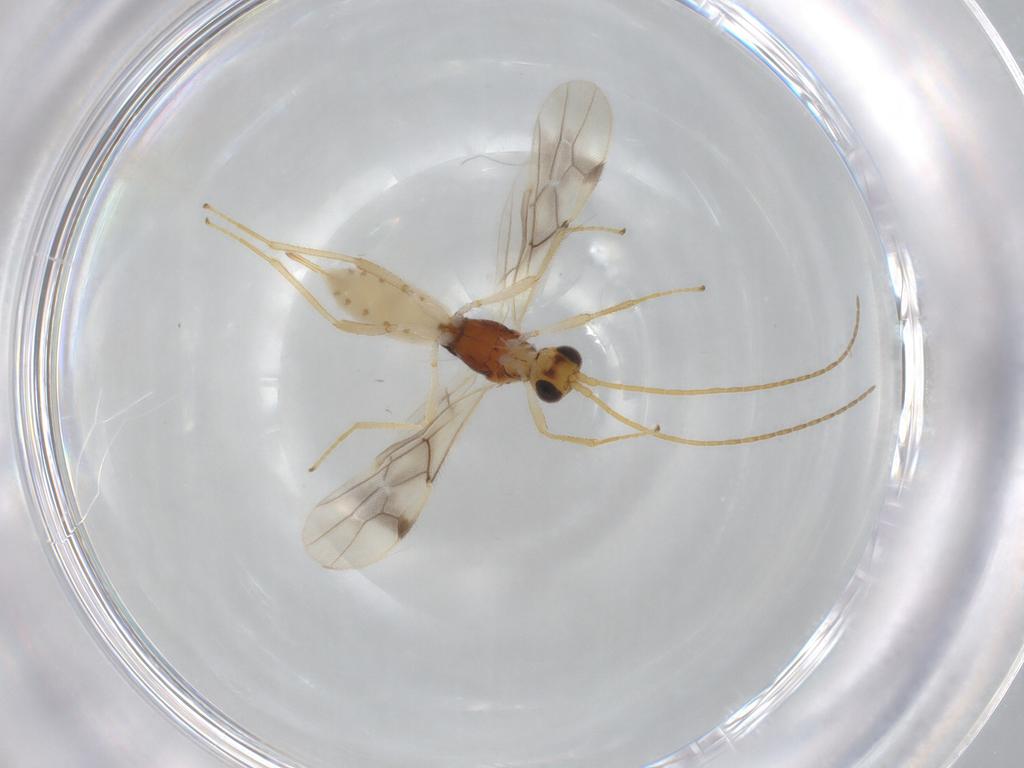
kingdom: Animalia
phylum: Arthropoda
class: Insecta
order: Hymenoptera
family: Braconidae
